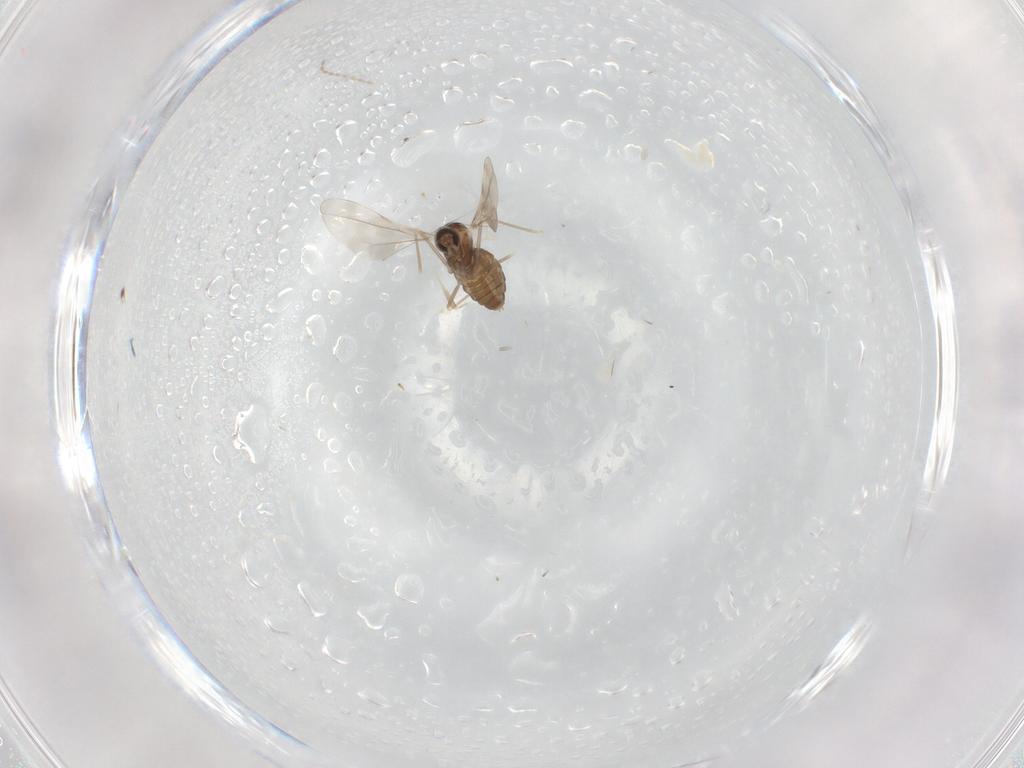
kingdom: Animalia
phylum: Arthropoda
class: Insecta
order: Diptera
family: Cecidomyiidae
